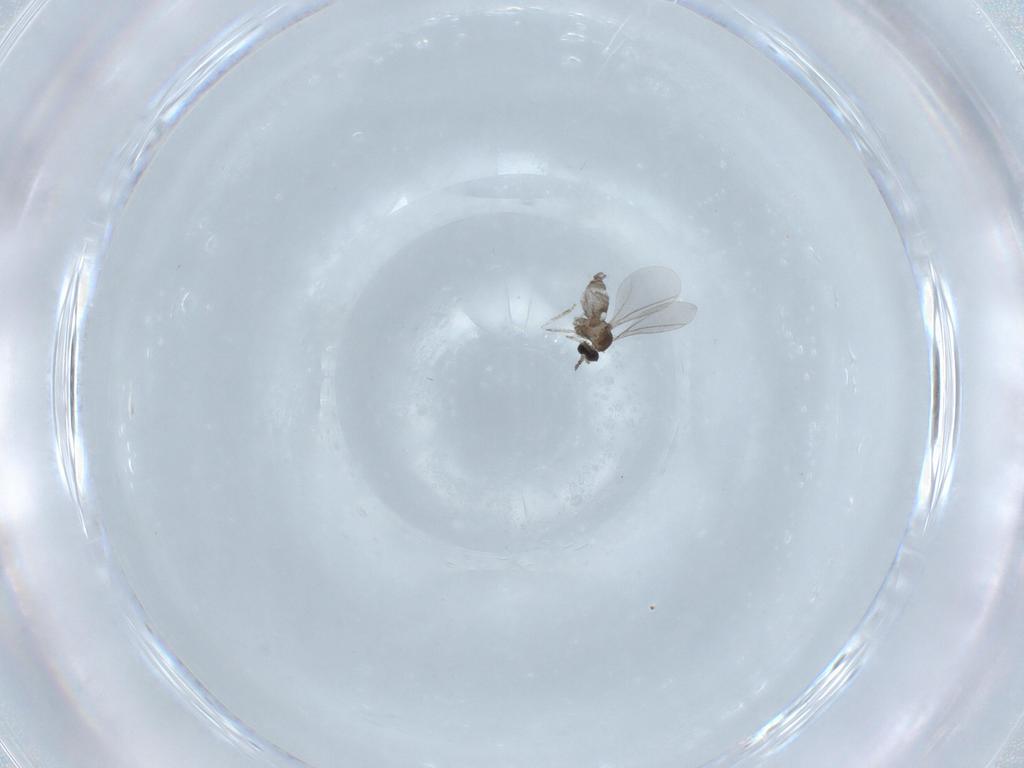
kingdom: Animalia
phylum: Arthropoda
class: Insecta
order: Diptera
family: Cecidomyiidae
